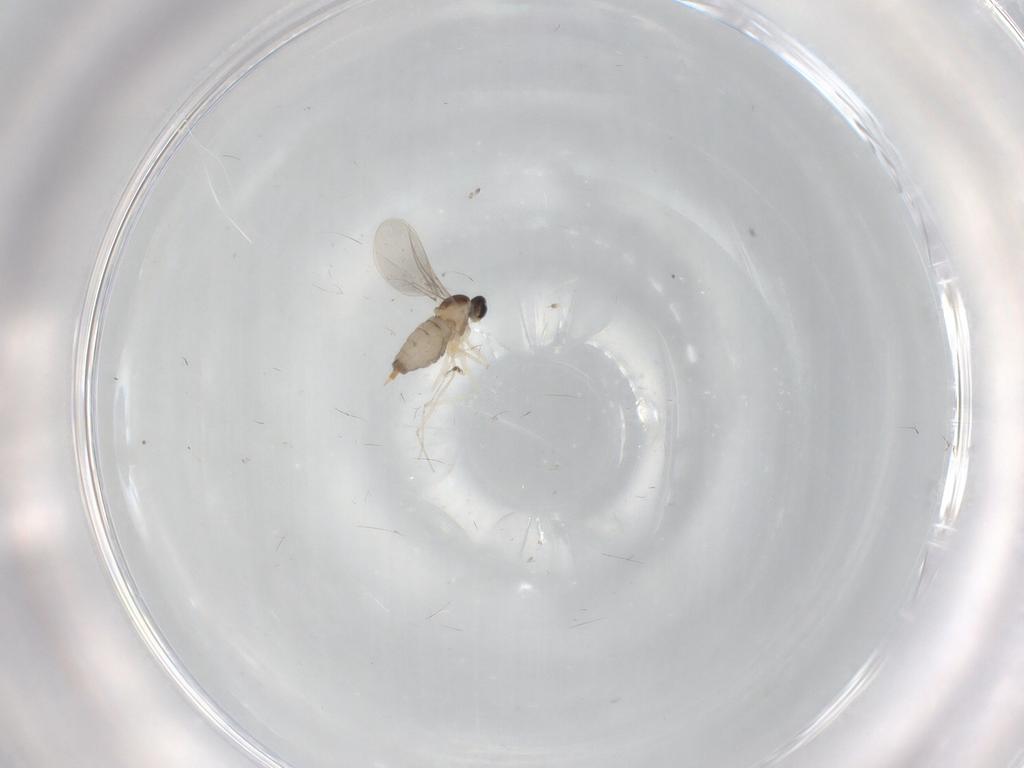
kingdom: Animalia
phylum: Arthropoda
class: Insecta
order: Diptera
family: Cecidomyiidae
